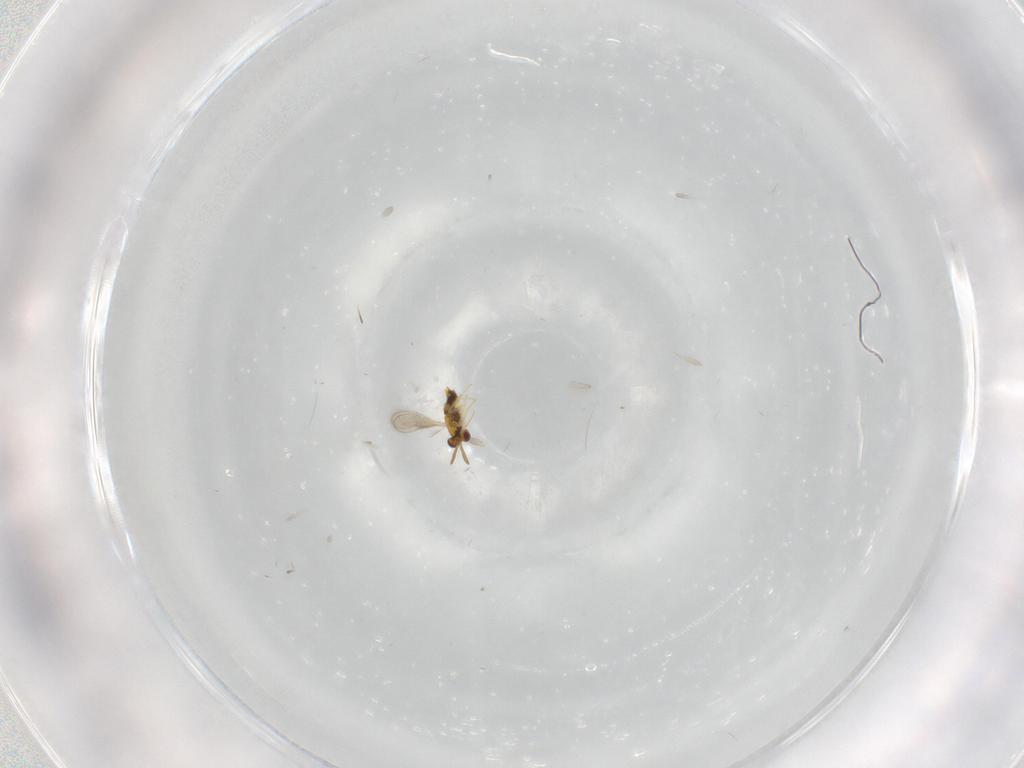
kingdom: Animalia
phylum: Arthropoda
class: Insecta
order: Hymenoptera
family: Aphelinidae
